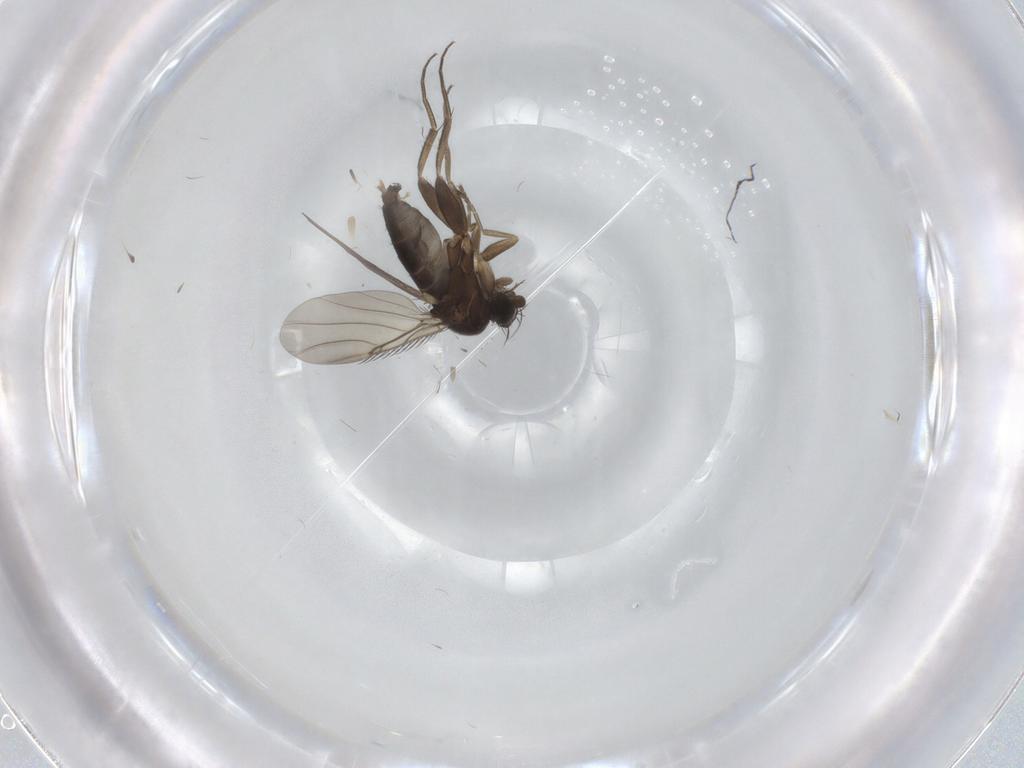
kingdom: Animalia
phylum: Arthropoda
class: Insecta
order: Diptera
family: Phoridae
